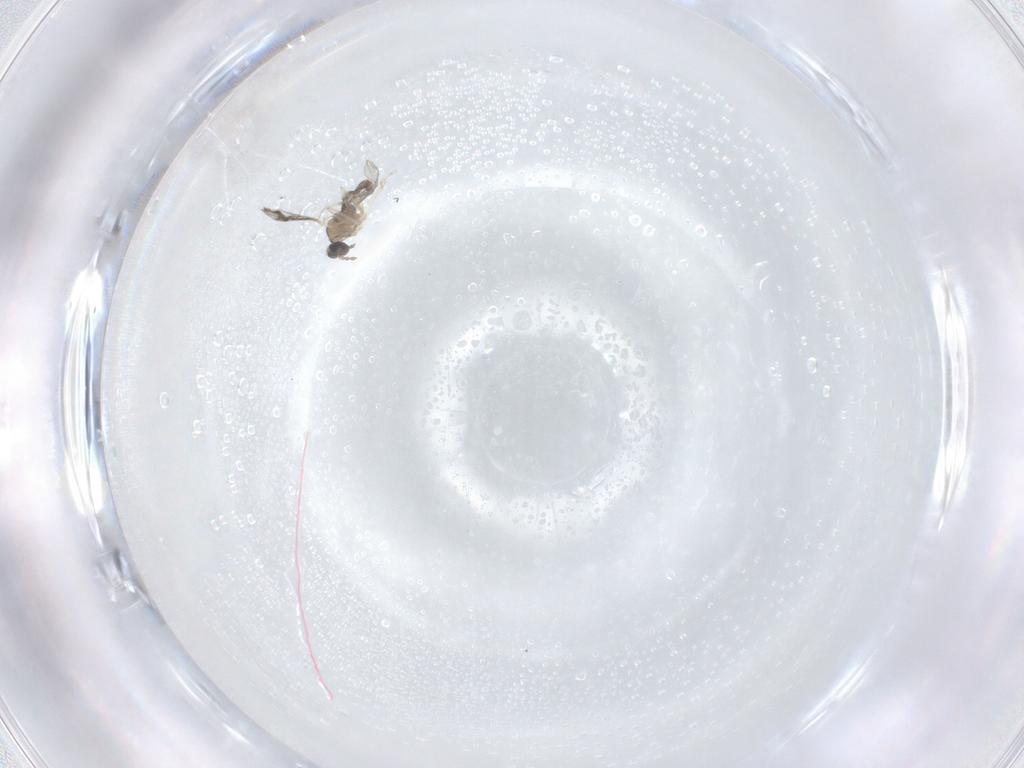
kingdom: Animalia
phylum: Arthropoda
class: Insecta
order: Diptera
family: Cecidomyiidae
